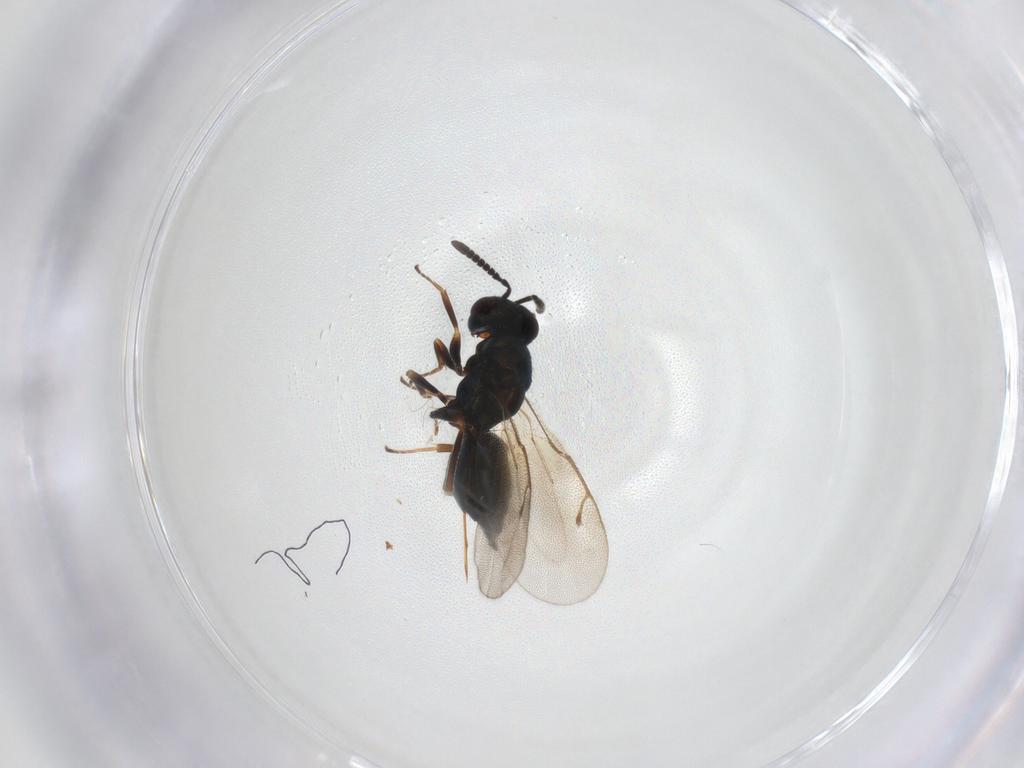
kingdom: Animalia
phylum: Arthropoda
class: Insecta
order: Hymenoptera
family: Pteromalidae
